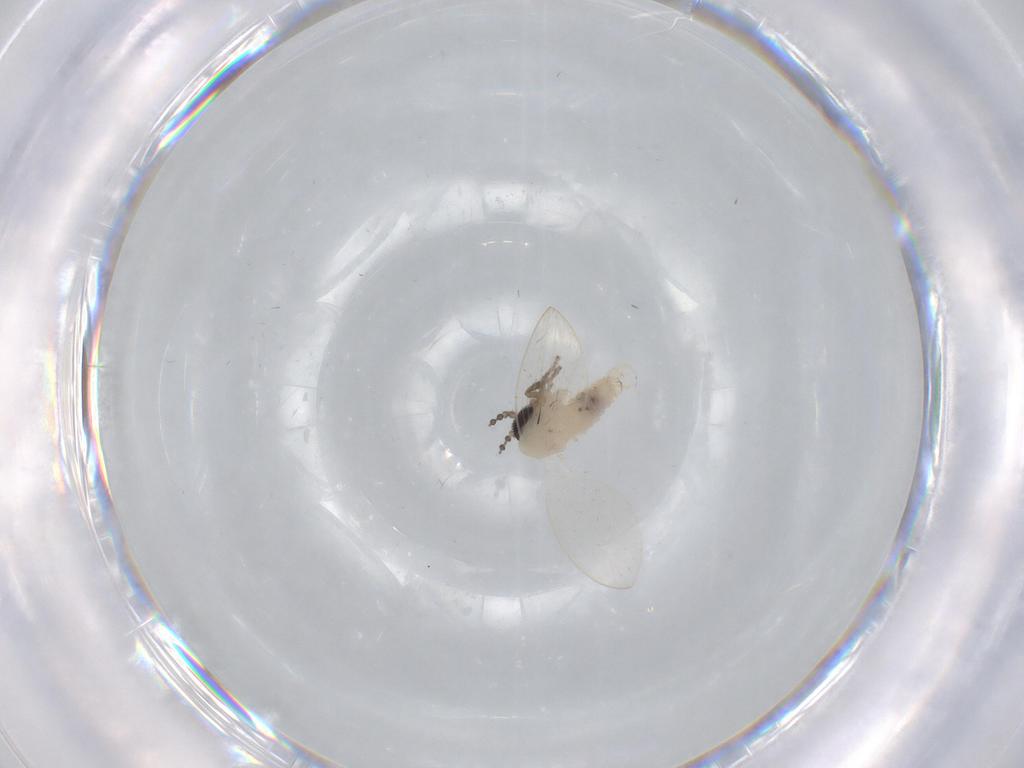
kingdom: Animalia
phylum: Arthropoda
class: Insecta
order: Diptera
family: Psychodidae
